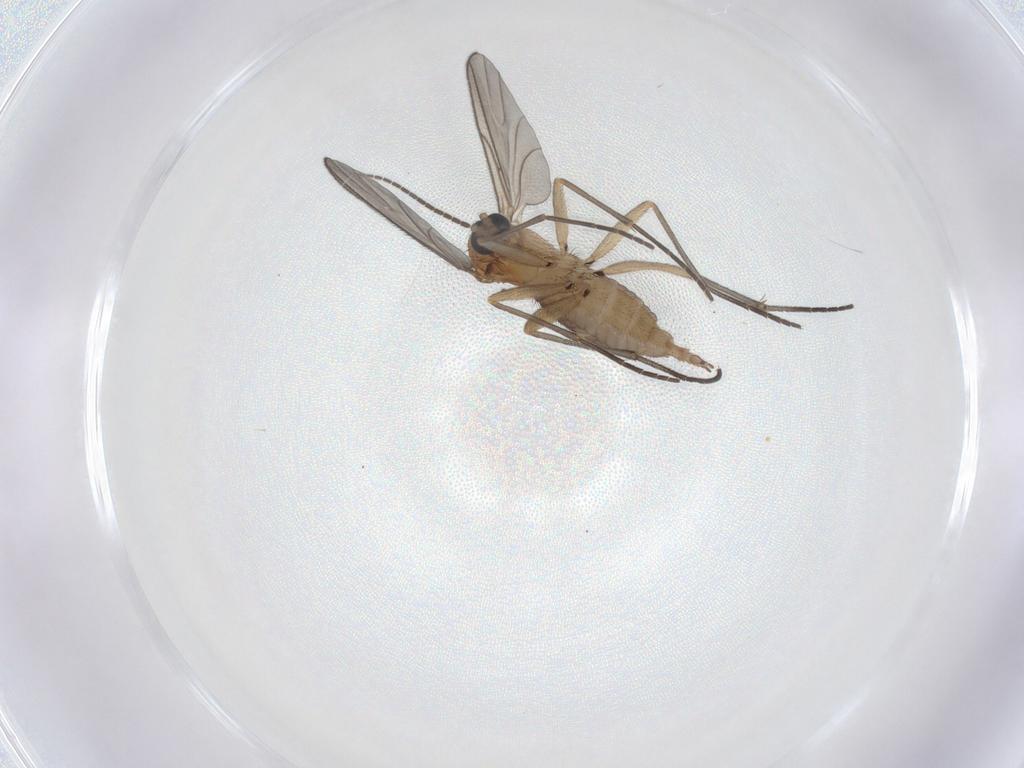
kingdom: Animalia
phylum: Arthropoda
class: Insecta
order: Diptera
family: Sciaridae
